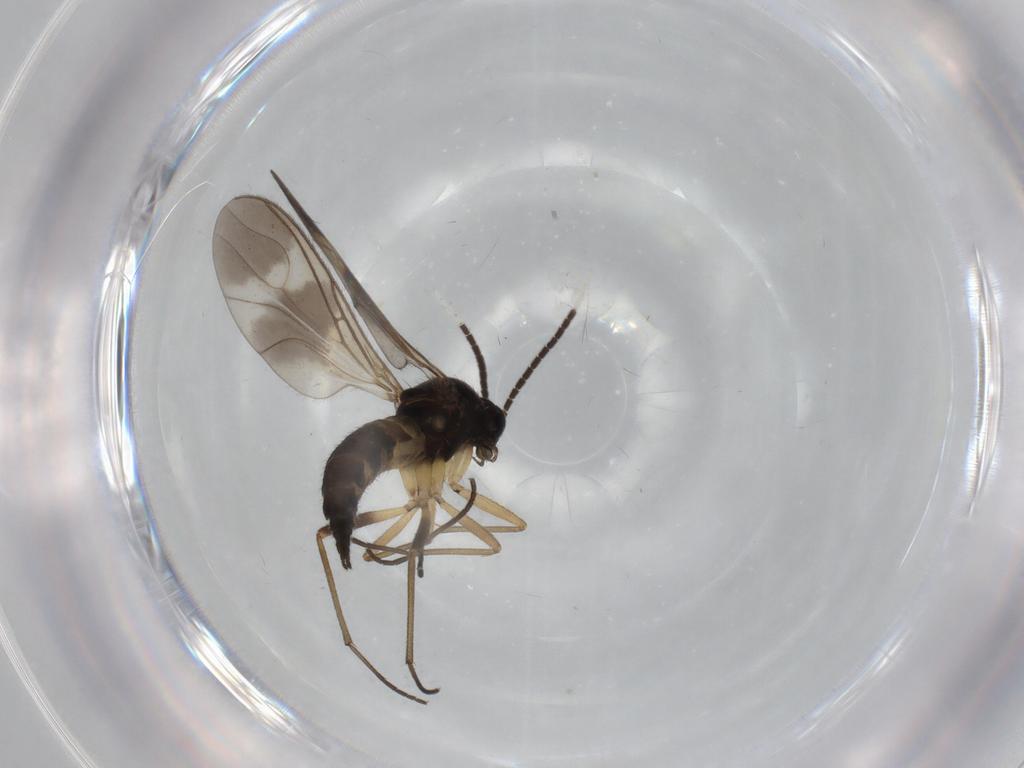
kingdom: Animalia
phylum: Arthropoda
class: Insecta
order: Diptera
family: Sciaridae
